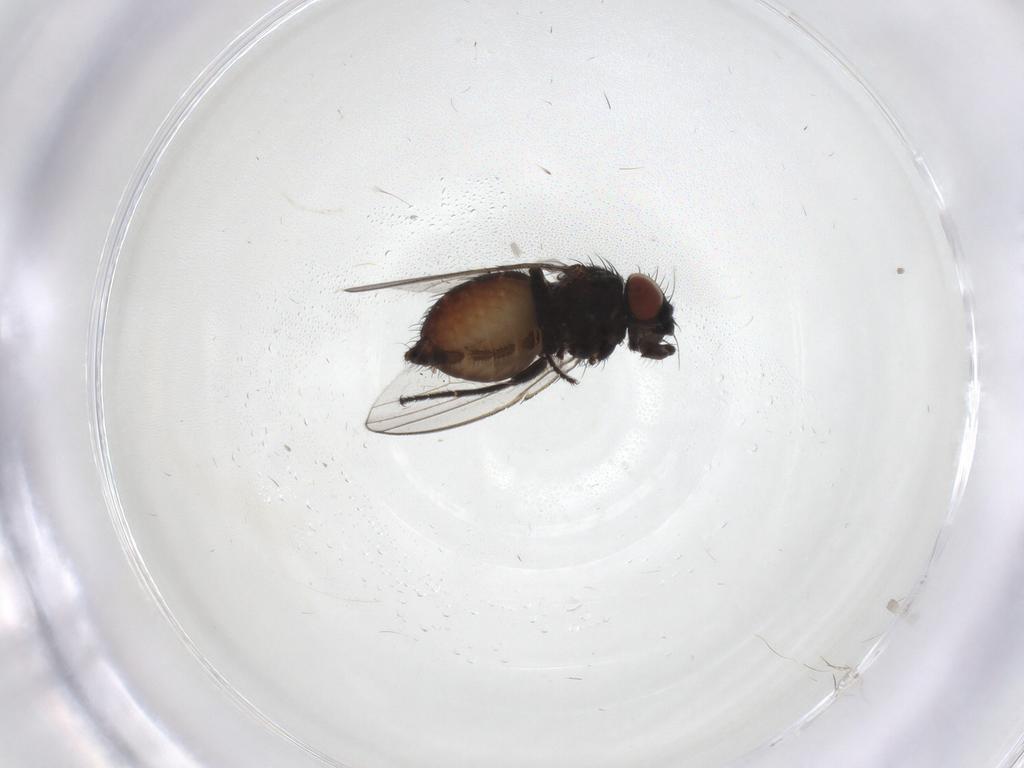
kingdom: Animalia
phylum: Arthropoda
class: Insecta
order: Diptera
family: Milichiidae
